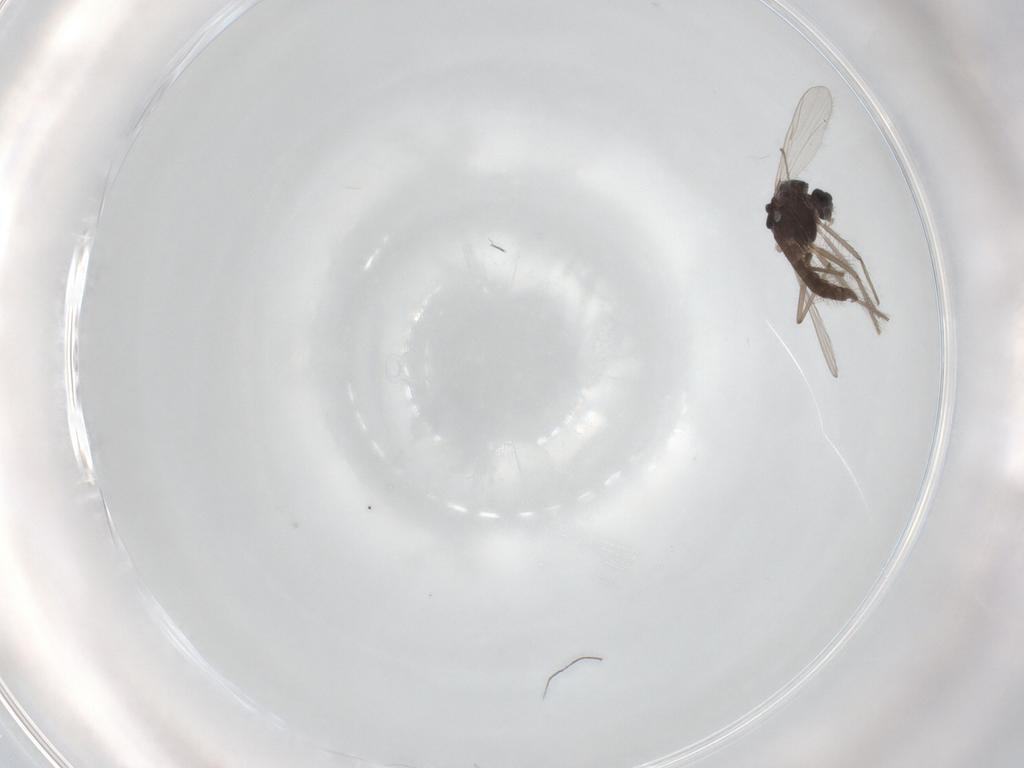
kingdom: Animalia
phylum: Arthropoda
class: Insecta
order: Diptera
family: Chironomidae
